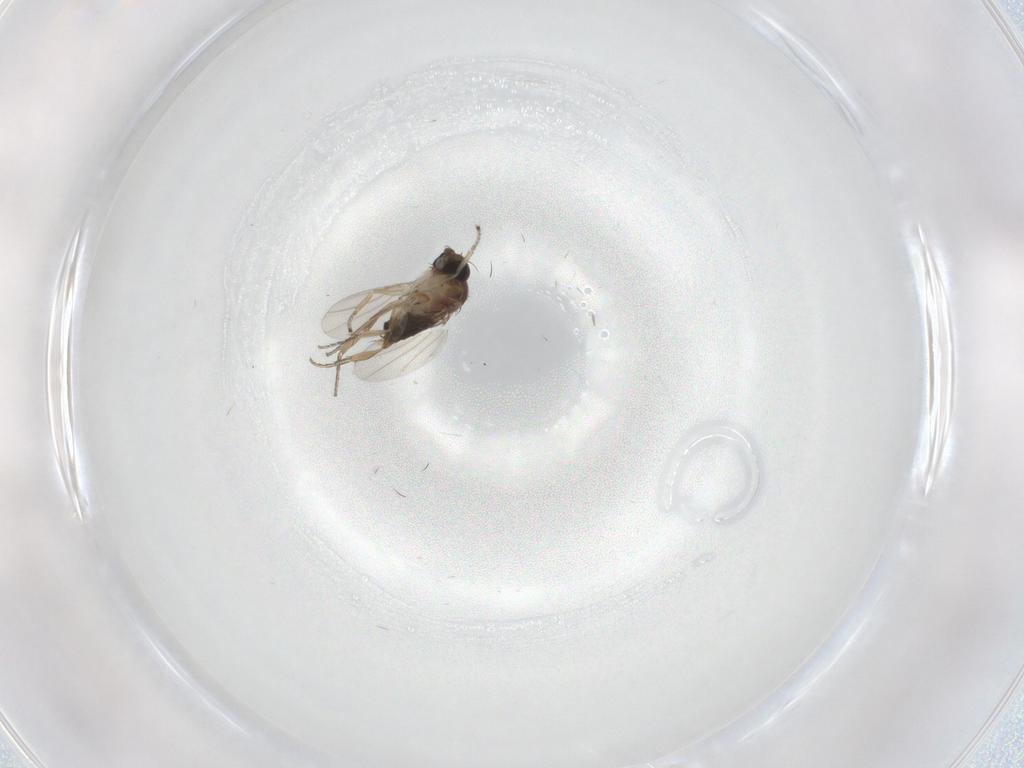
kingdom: Animalia
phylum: Arthropoda
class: Insecta
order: Diptera
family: Phoridae
